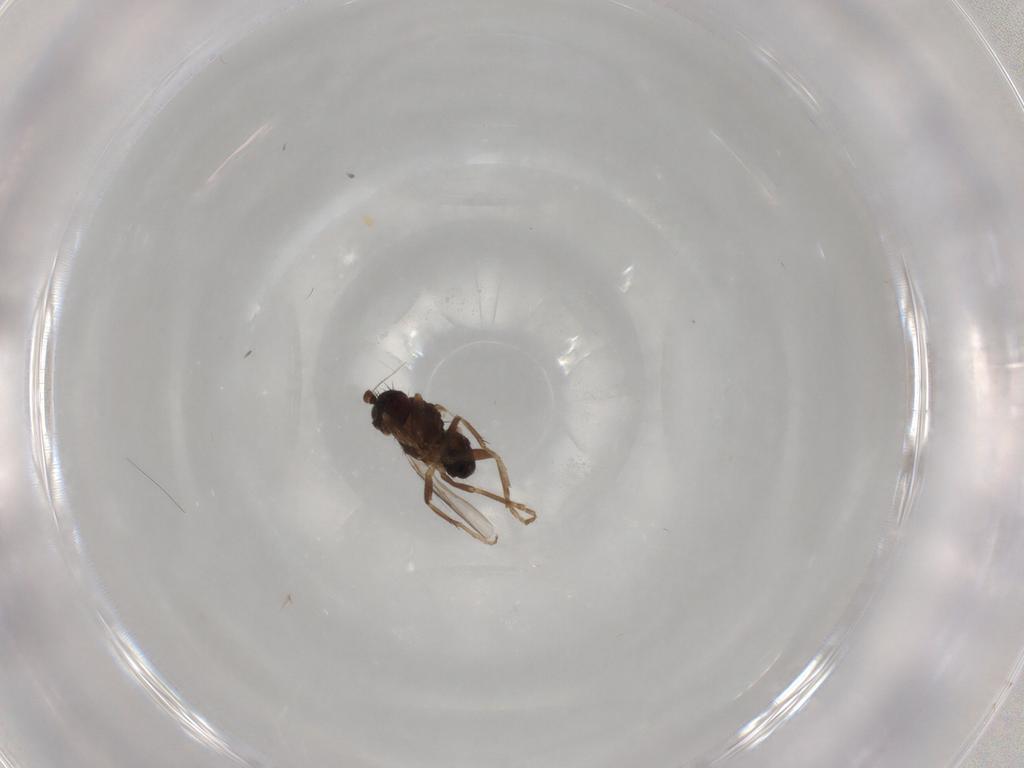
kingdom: Animalia
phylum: Arthropoda
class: Insecta
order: Diptera
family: Sphaeroceridae
